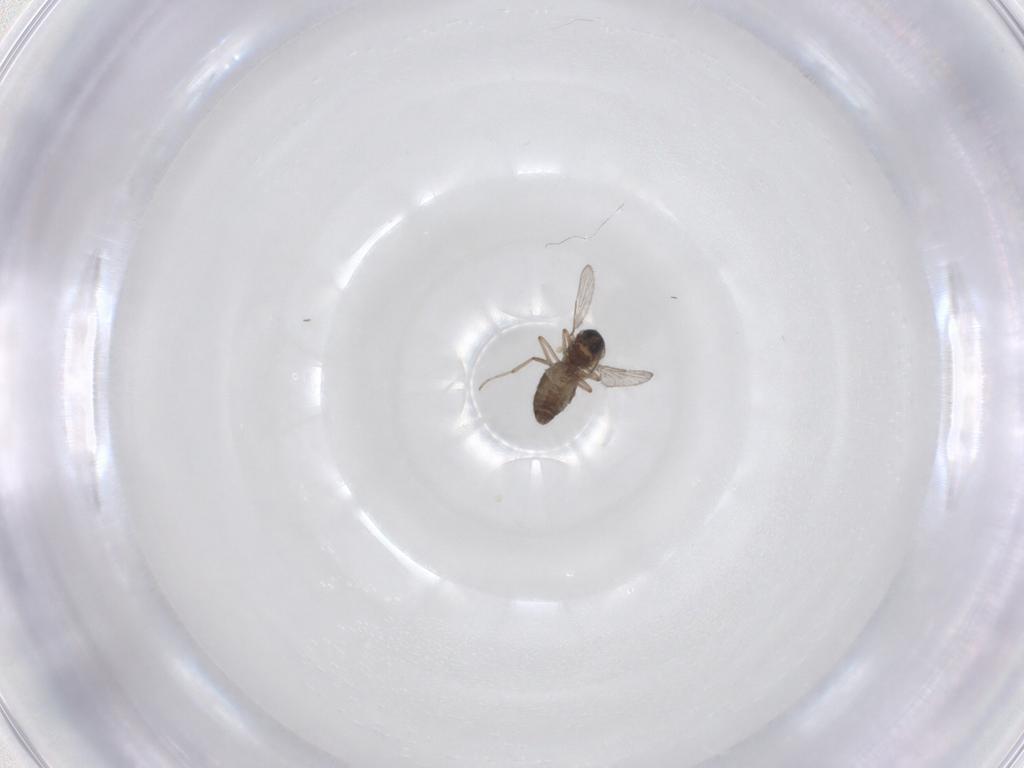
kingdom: Animalia
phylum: Arthropoda
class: Insecta
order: Diptera
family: Ceratopogonidae
